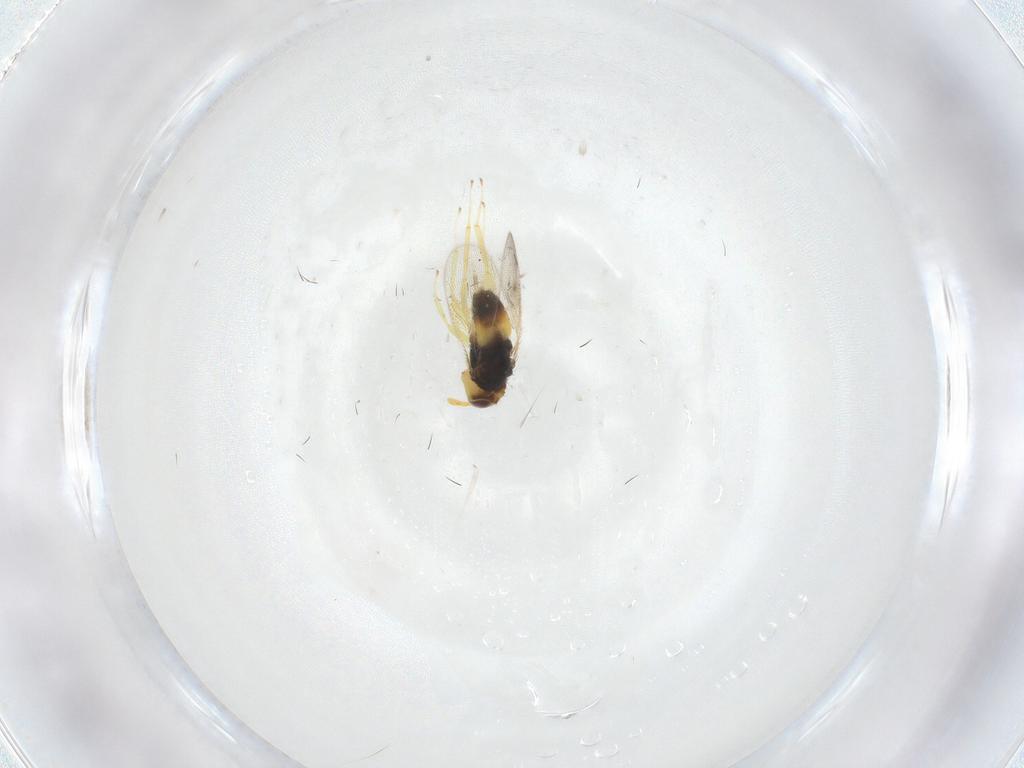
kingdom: Animalia
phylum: Arthropoda
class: Insecta
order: Hymenoptera
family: Aphelinidae
